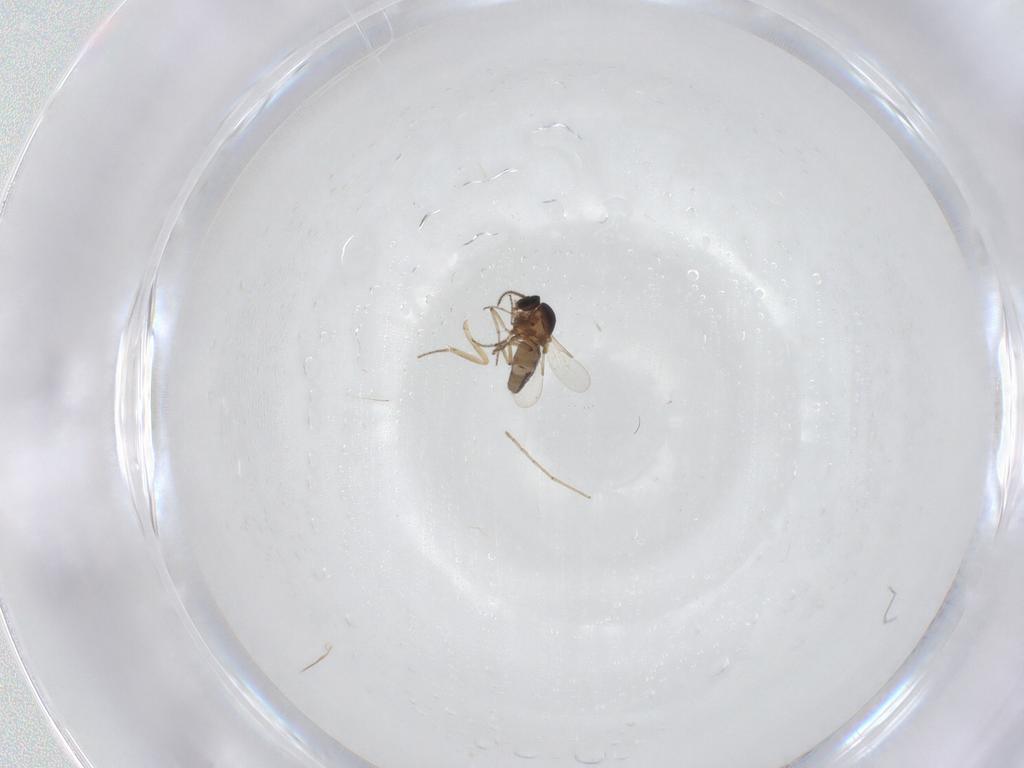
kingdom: Animalia
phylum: Arthropoda
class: Insecta
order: Diptera
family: Ceratopogonidae
